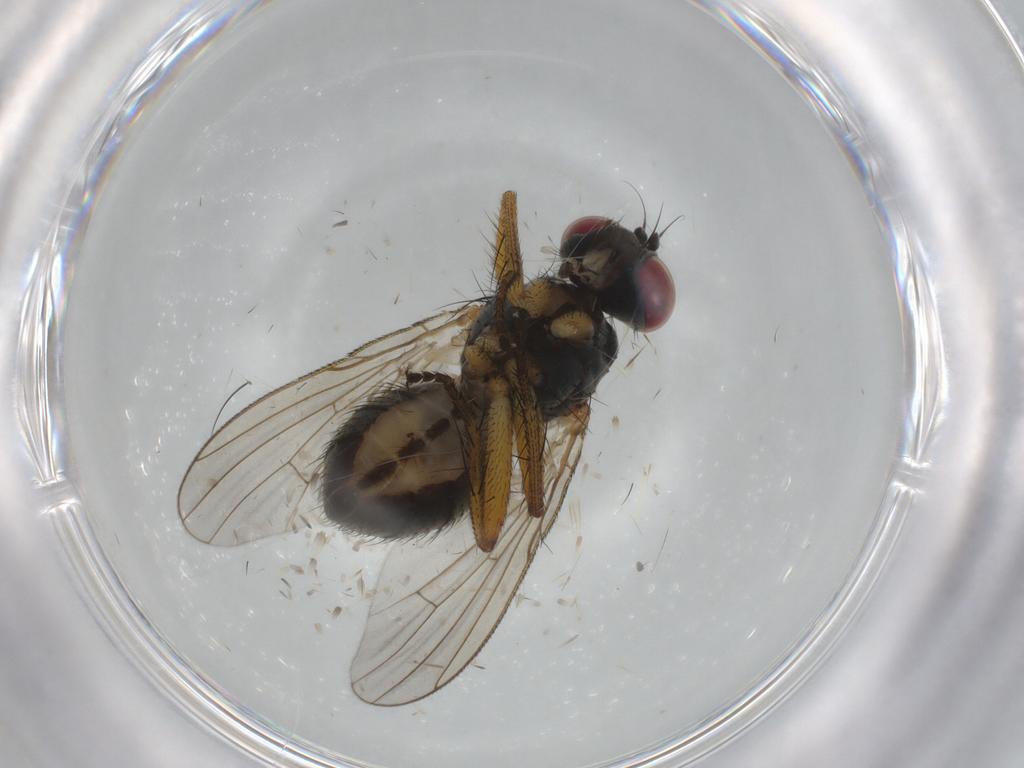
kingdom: Animalia
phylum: Arthropoda
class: Insecta
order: Diptera
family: Muscidae
